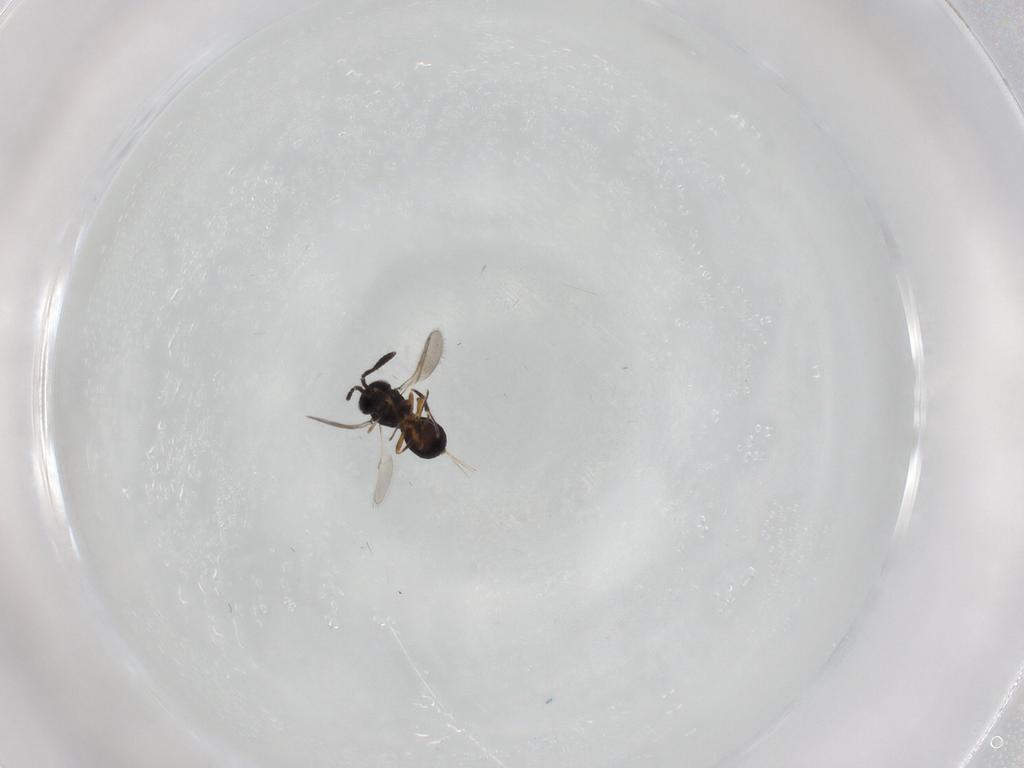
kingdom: Animalia
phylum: Arthropoda
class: Insecta
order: Hymenoptera
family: Scelionidae
